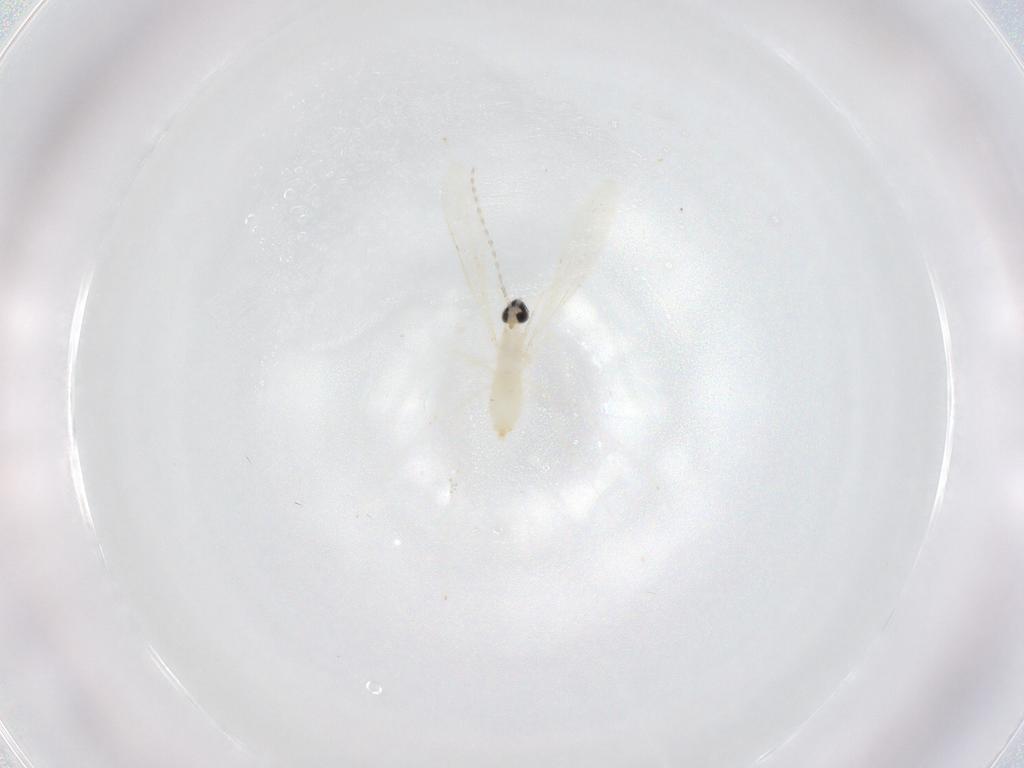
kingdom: Animalia
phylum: Arthropoda
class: Insecta
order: Diptera
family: Cecidomyiidae
